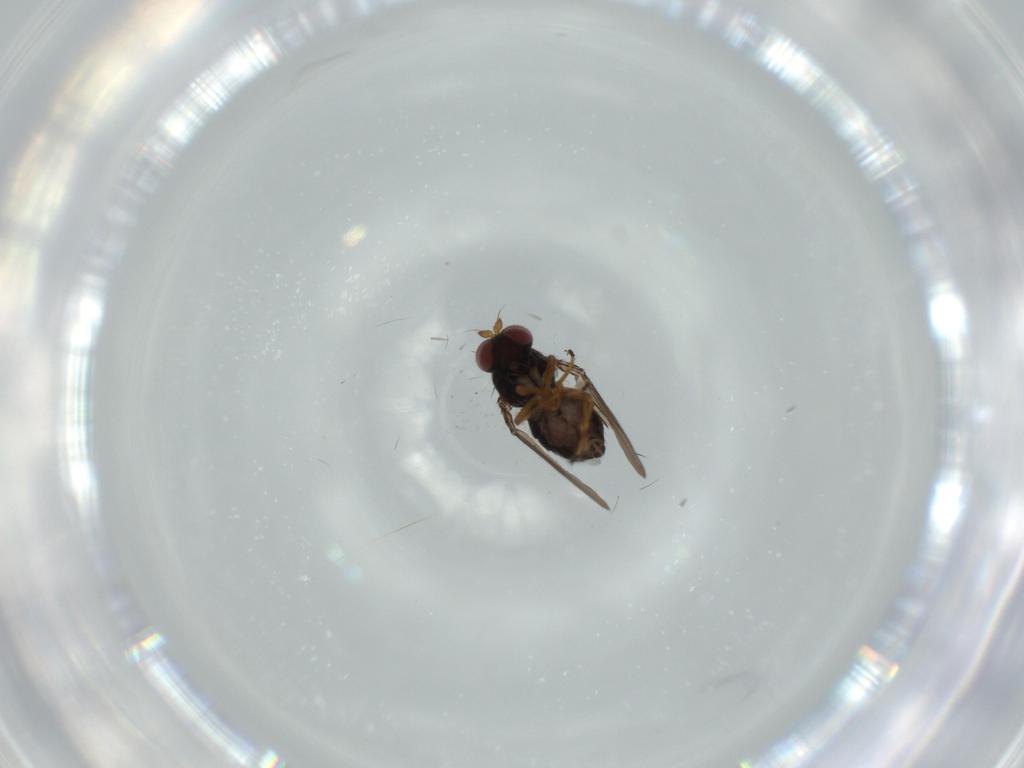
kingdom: Animalia
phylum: Arthropoda
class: Insecta
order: Diptera
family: Ephydridae
